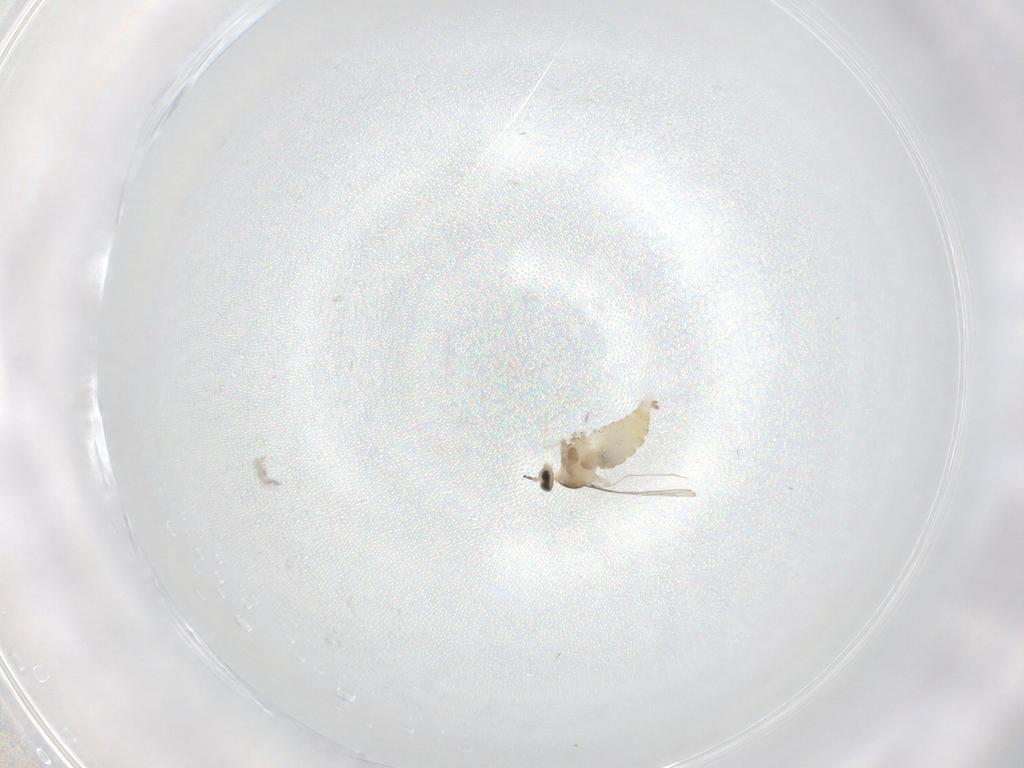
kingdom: Animalia
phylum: Arthropoda
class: Insecta
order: Diptera
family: Cecidomyiidae
